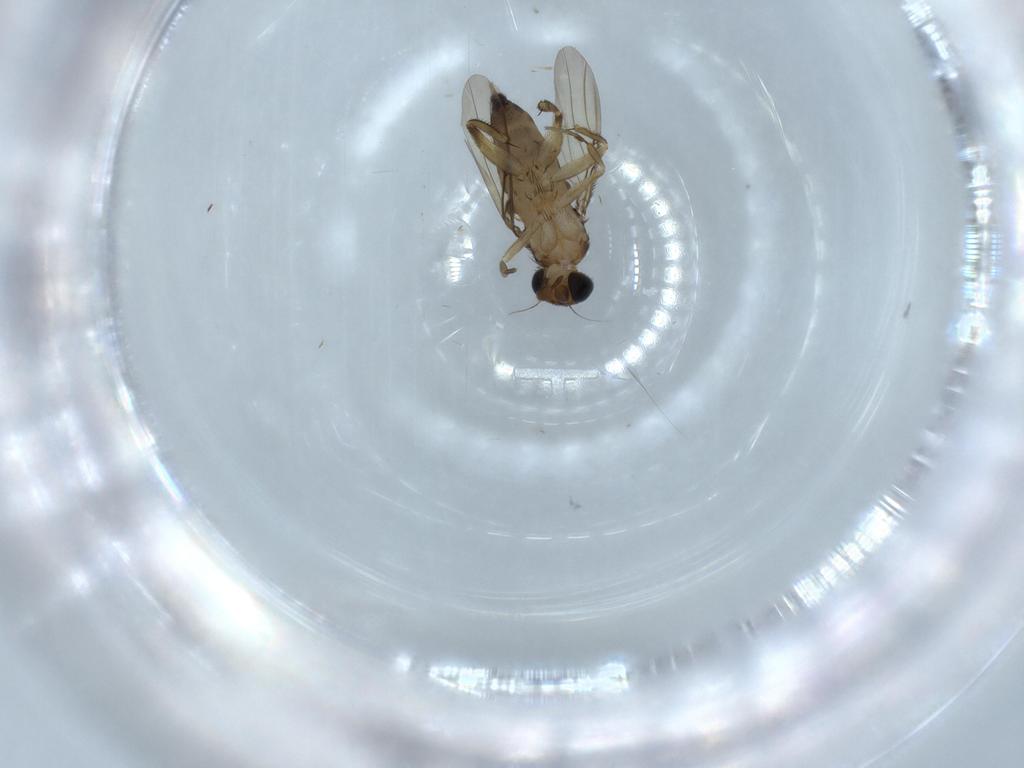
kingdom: Animalia
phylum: Arthropoda
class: Insecta
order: Diptera
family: Phoridae
